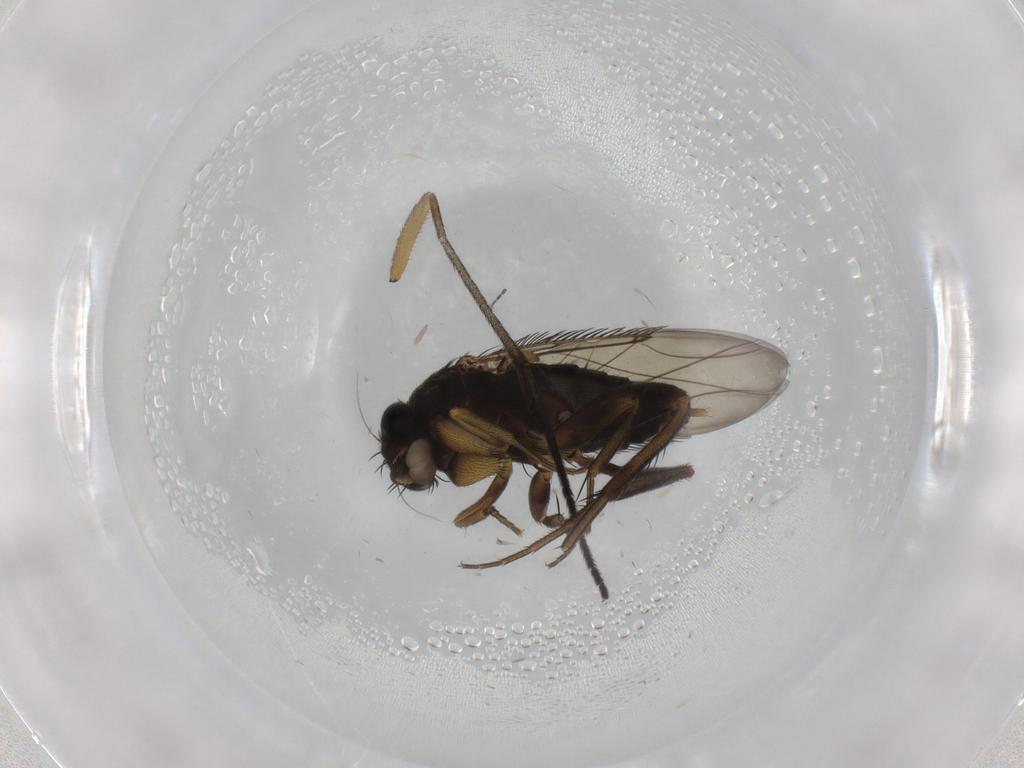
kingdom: Animalia
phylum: Arthropoda
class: Insecta
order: Diptera
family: Phoridae
